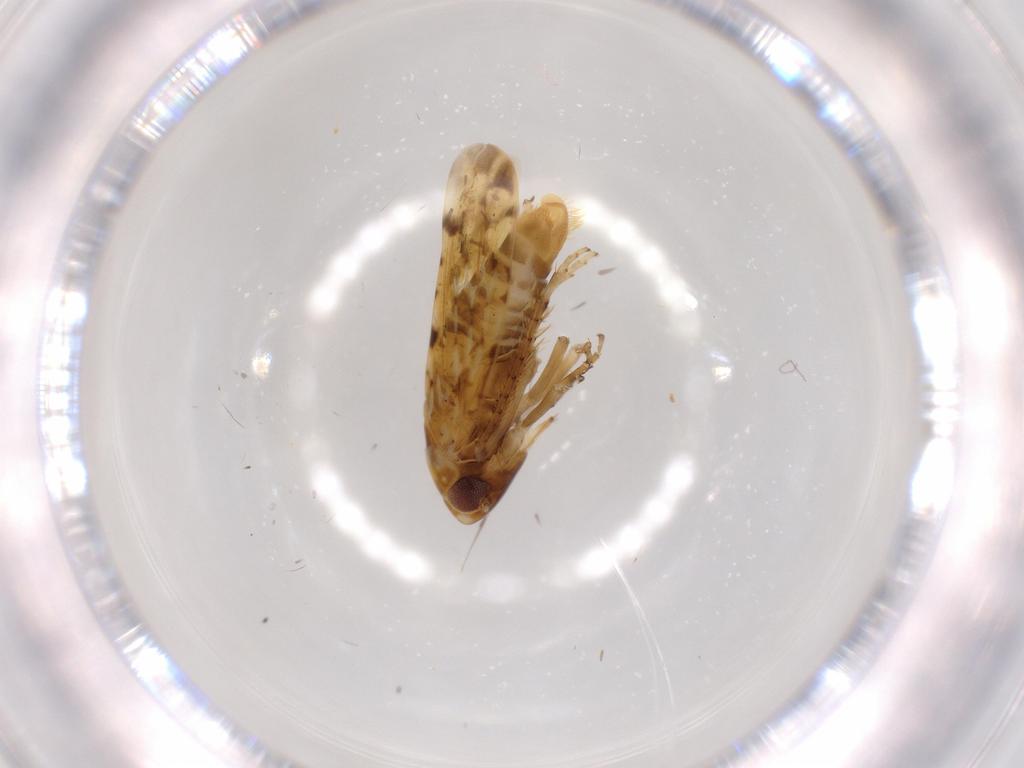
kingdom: Animalia
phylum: Arthropoda
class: Insecta
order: Hemiptera
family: Cicadellidae
